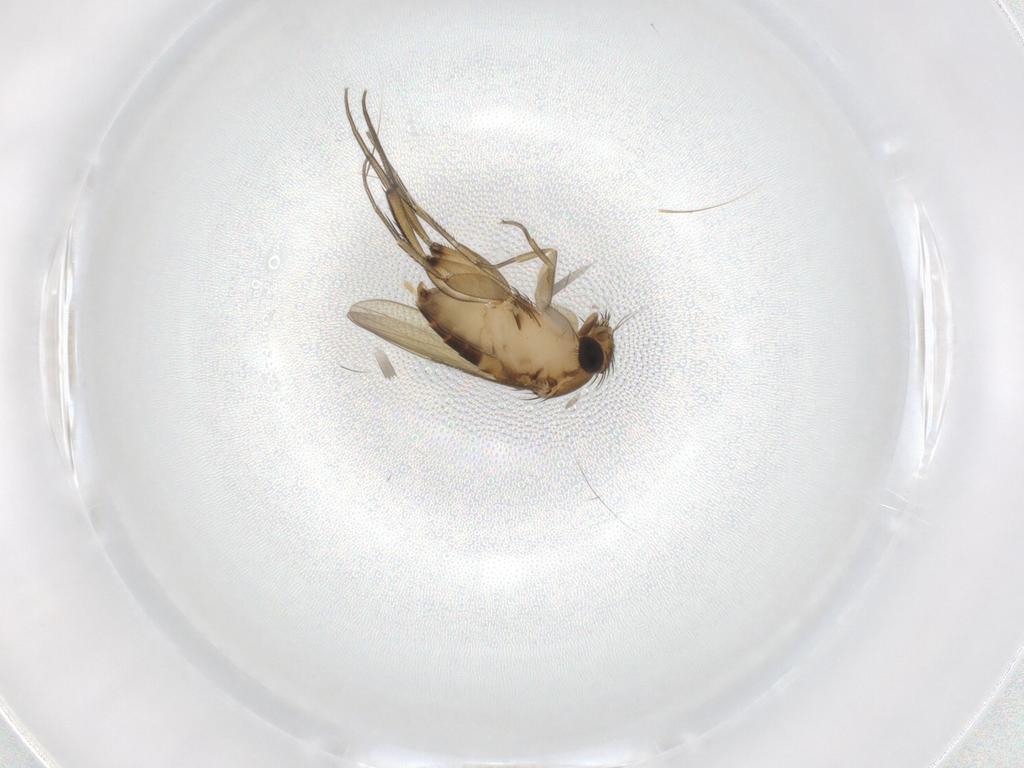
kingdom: Animalia
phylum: Arthropoda
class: Insecta
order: Diptera
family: Phoridae
